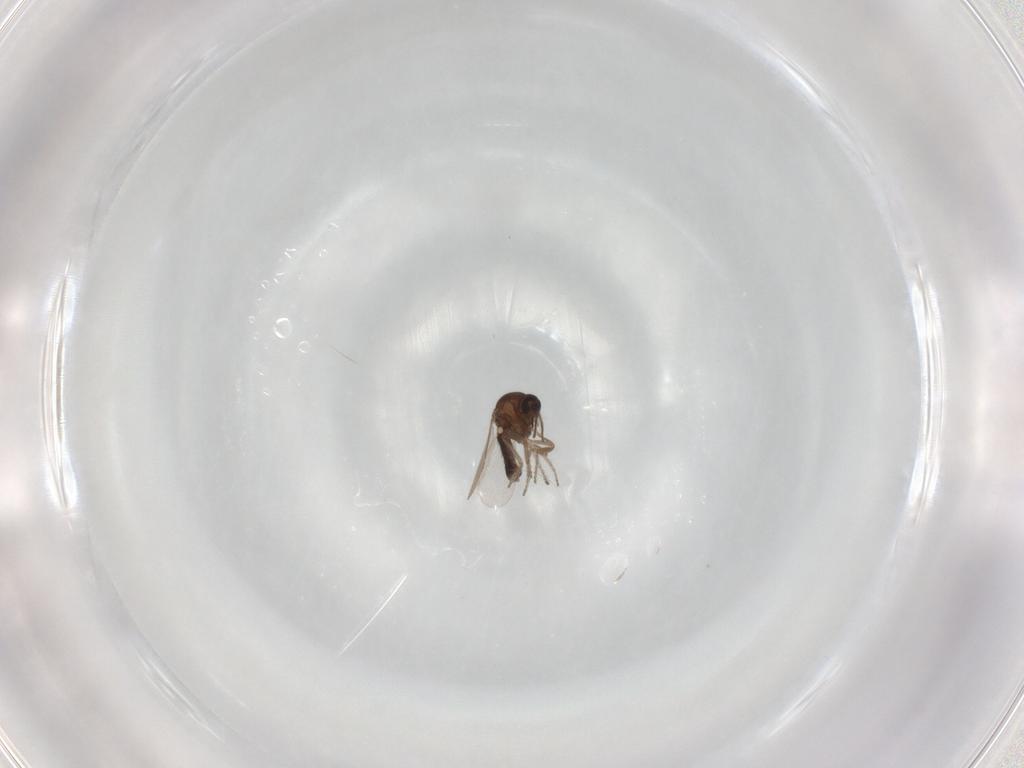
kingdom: Animalia
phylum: Arthropoda
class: Insecta
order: Diptera
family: Ceratopogonidae
